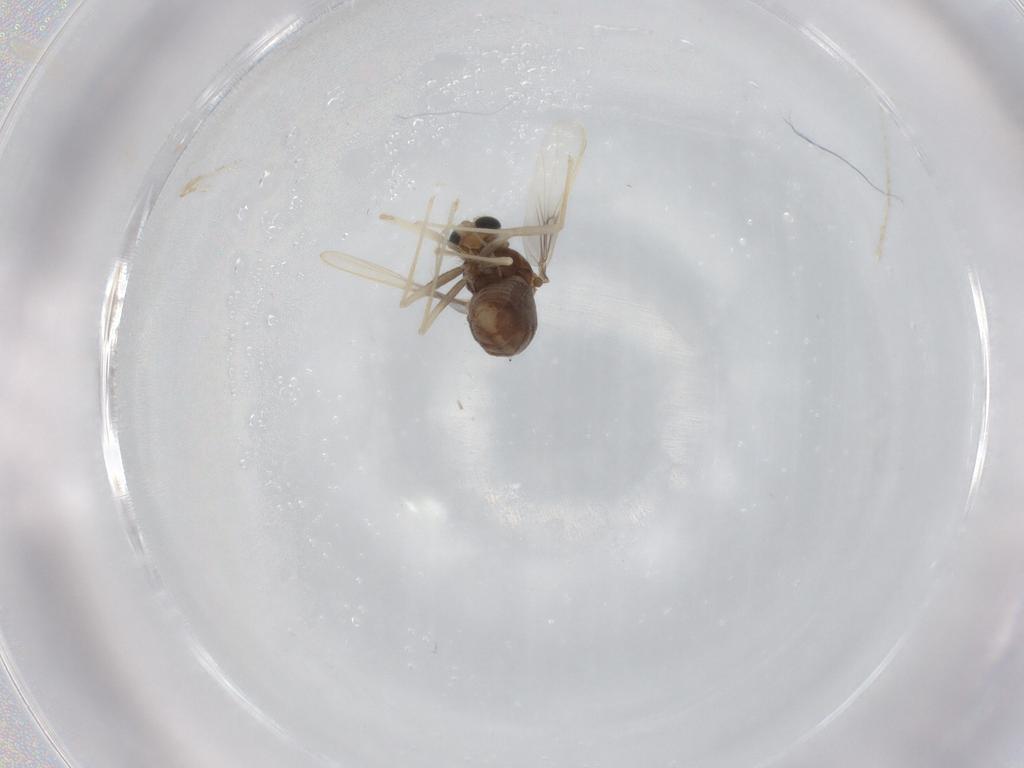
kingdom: Animalia
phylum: Arthropoda
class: Insecta
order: Diptera
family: Chironomidae
